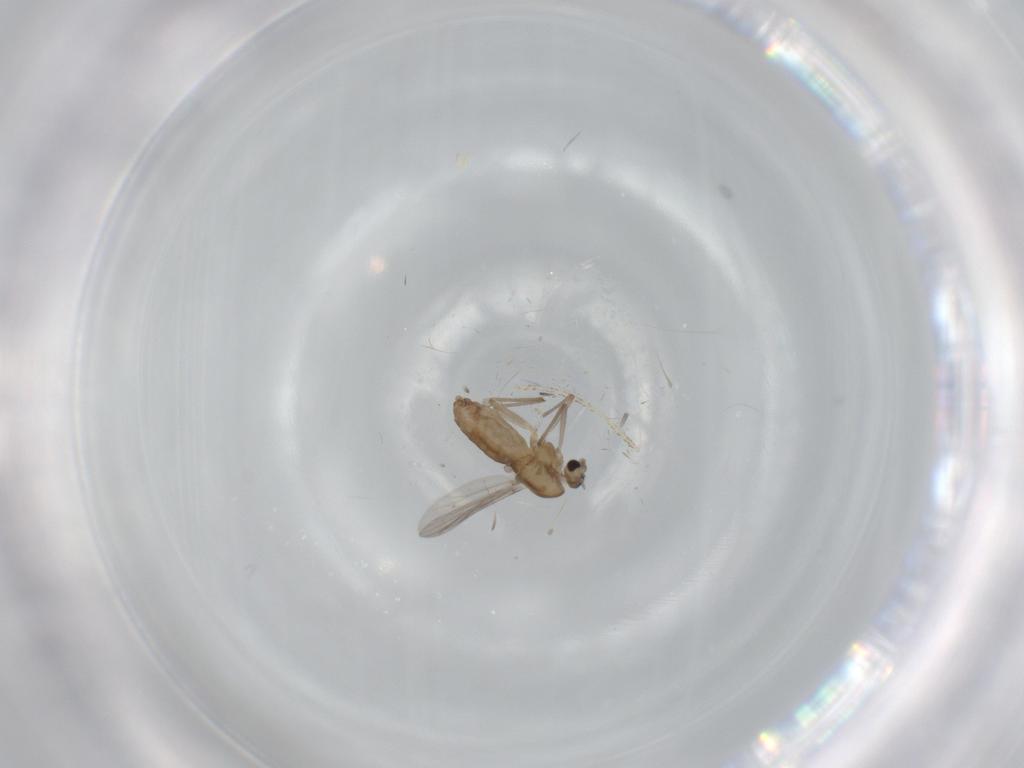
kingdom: Animalia
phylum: Arthropoda
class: Insecta
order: Diptera
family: Chironomidae
